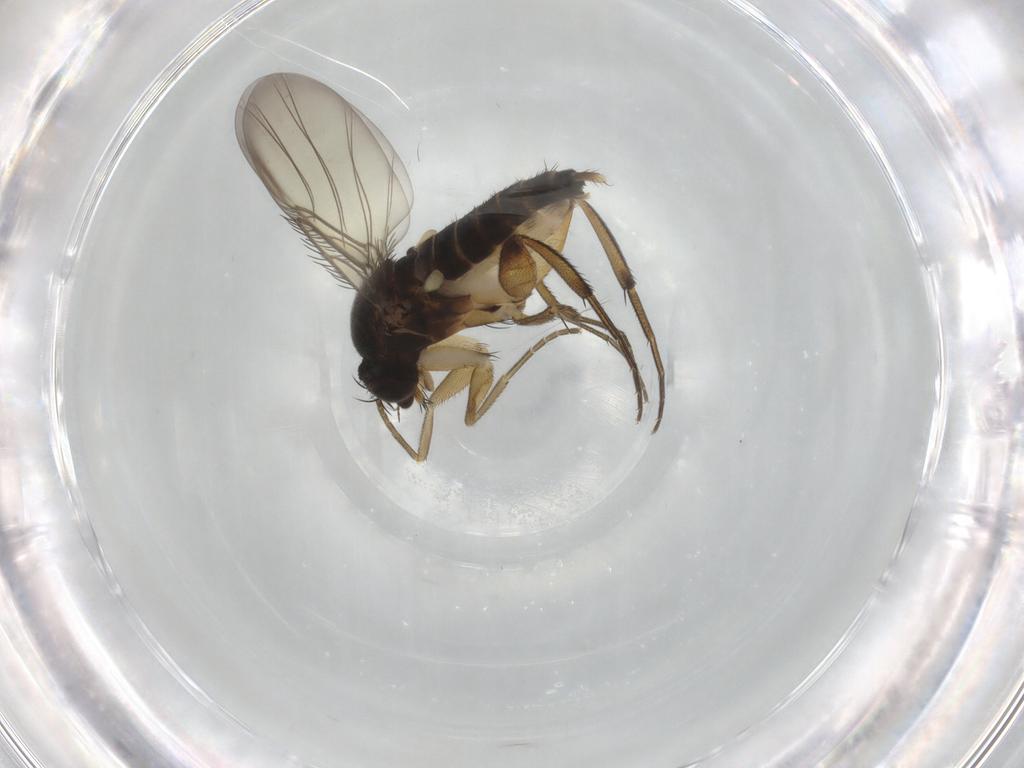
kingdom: Animalia
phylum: Arthropoda
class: Insecta
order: Diptera
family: Phoridae
